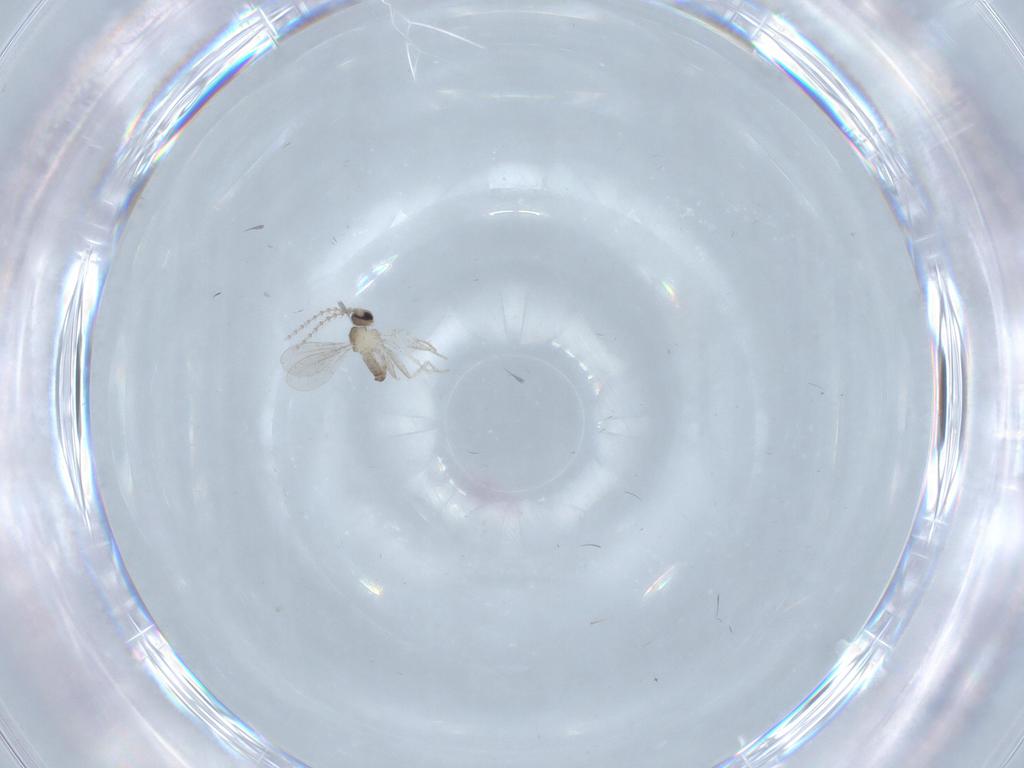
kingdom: Animalia
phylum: Arthropoda
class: Insecta
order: Diptera
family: Cecidomyiidae
